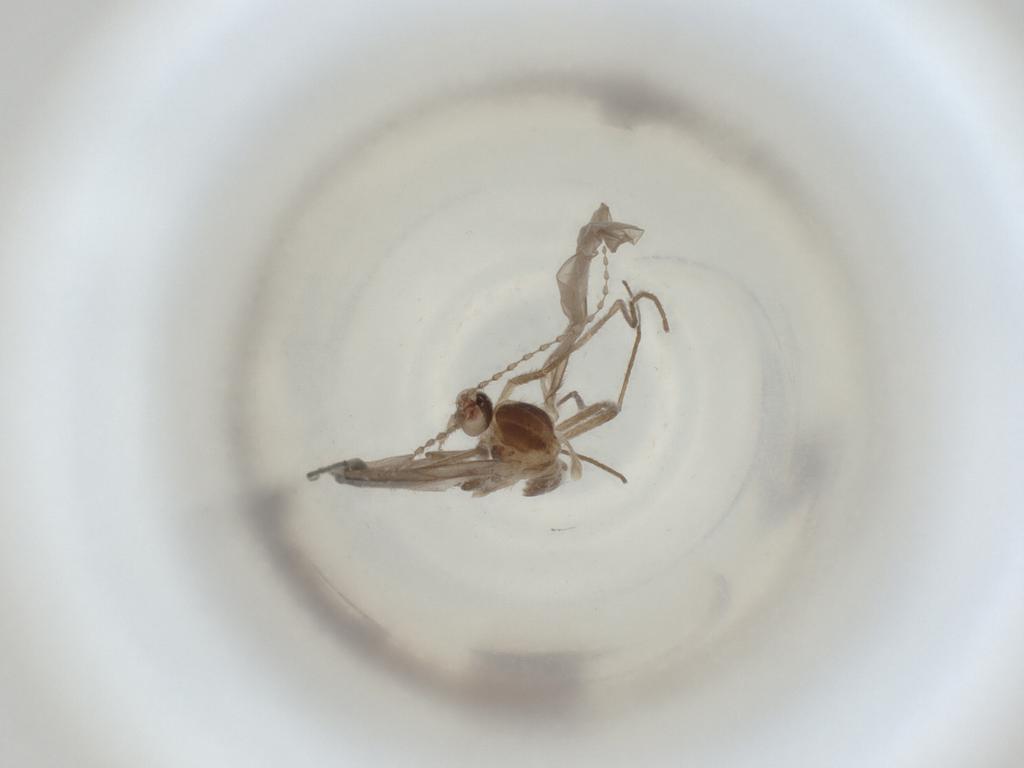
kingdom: Animalia
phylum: Arthropoda
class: Insecta
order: Diptera
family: Cecidomyiidae
